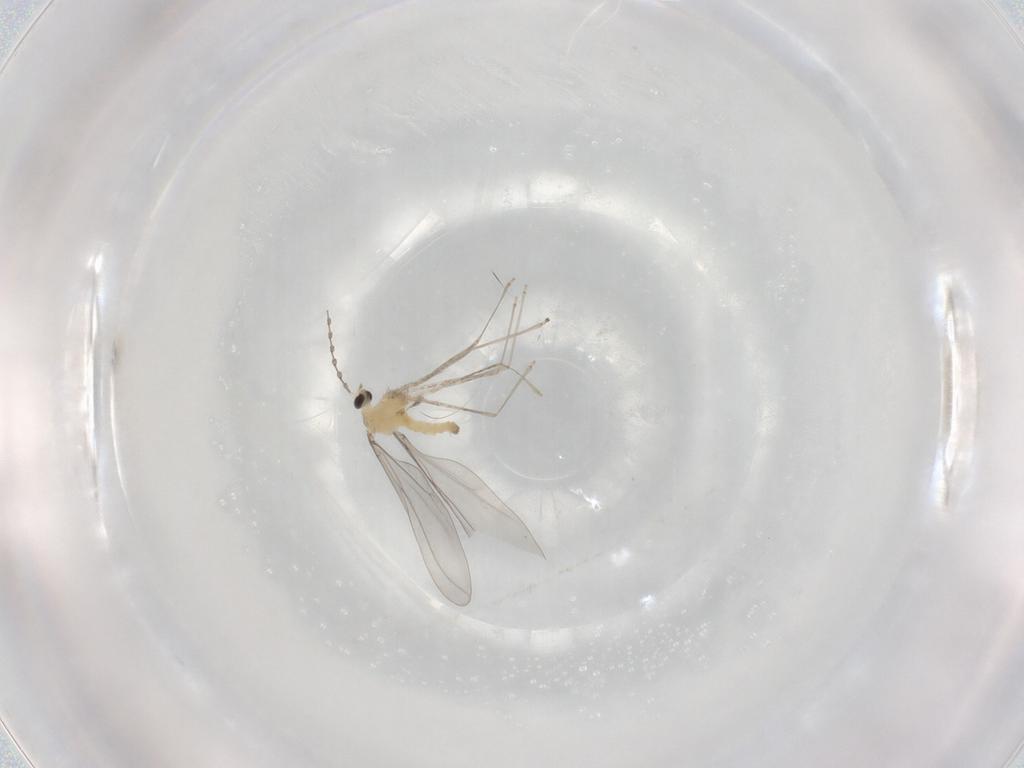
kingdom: Animalia
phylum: Arthropoda
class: Insecta
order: Diptera
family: Cecidomyiidae
